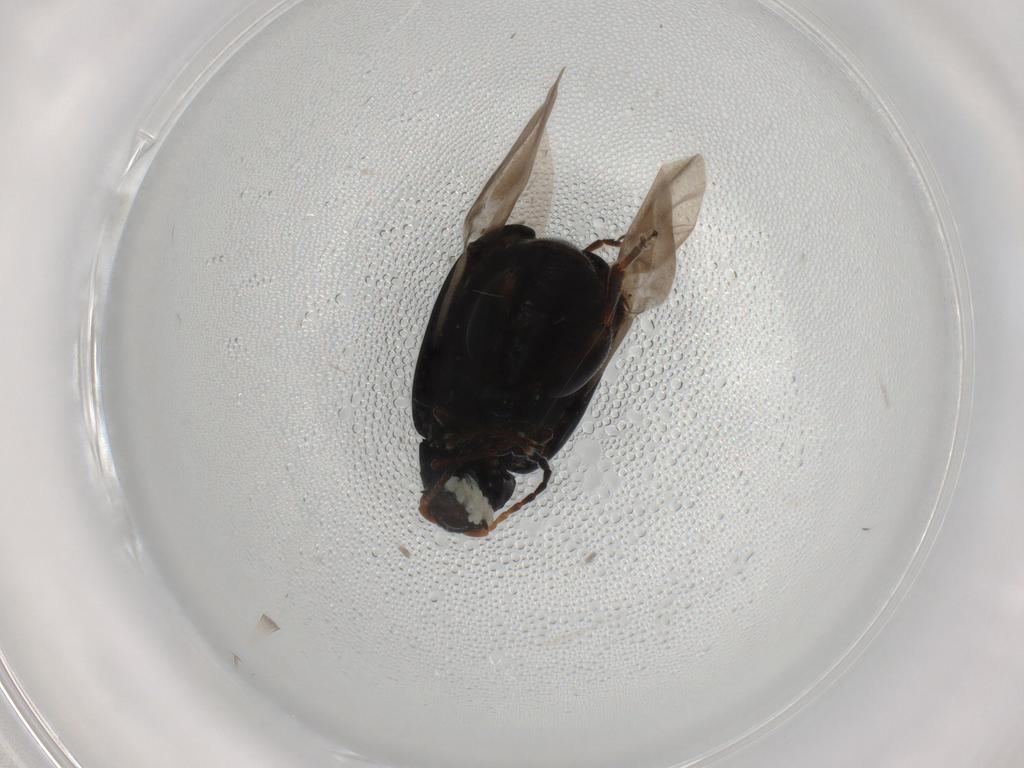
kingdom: Animalia
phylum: Arthropoda
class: Insecta
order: Coleoptera
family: Chrysomelidae
